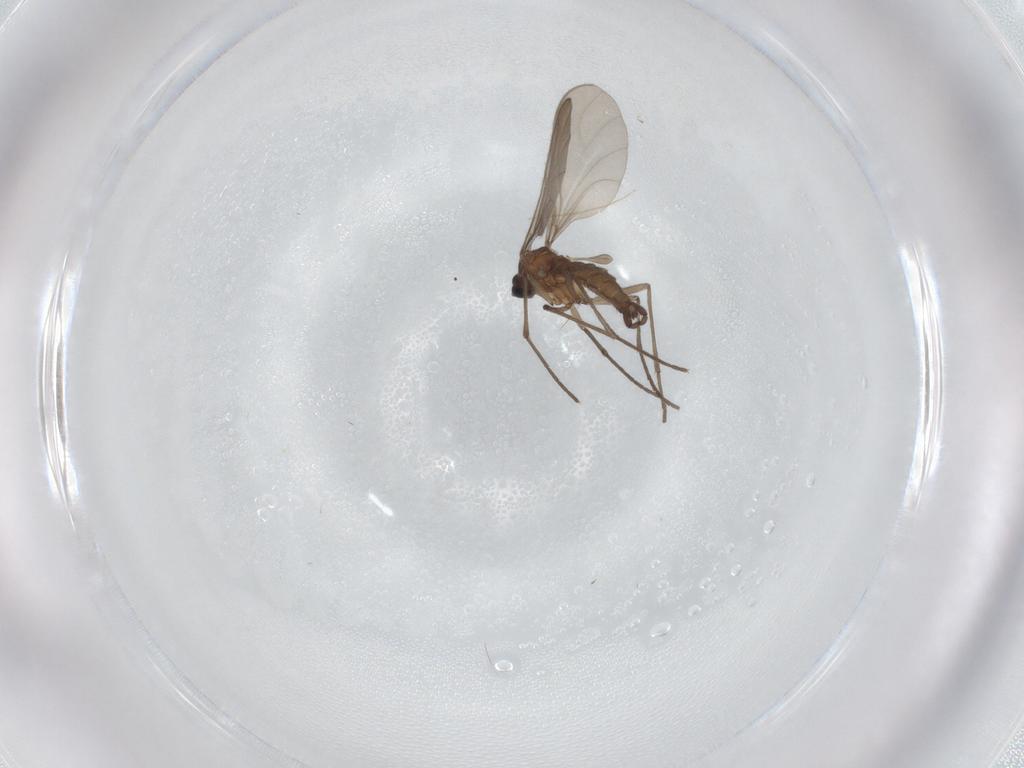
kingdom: Animalia
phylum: Arthropoda
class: Insecta
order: Diptera
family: Sciaridae
